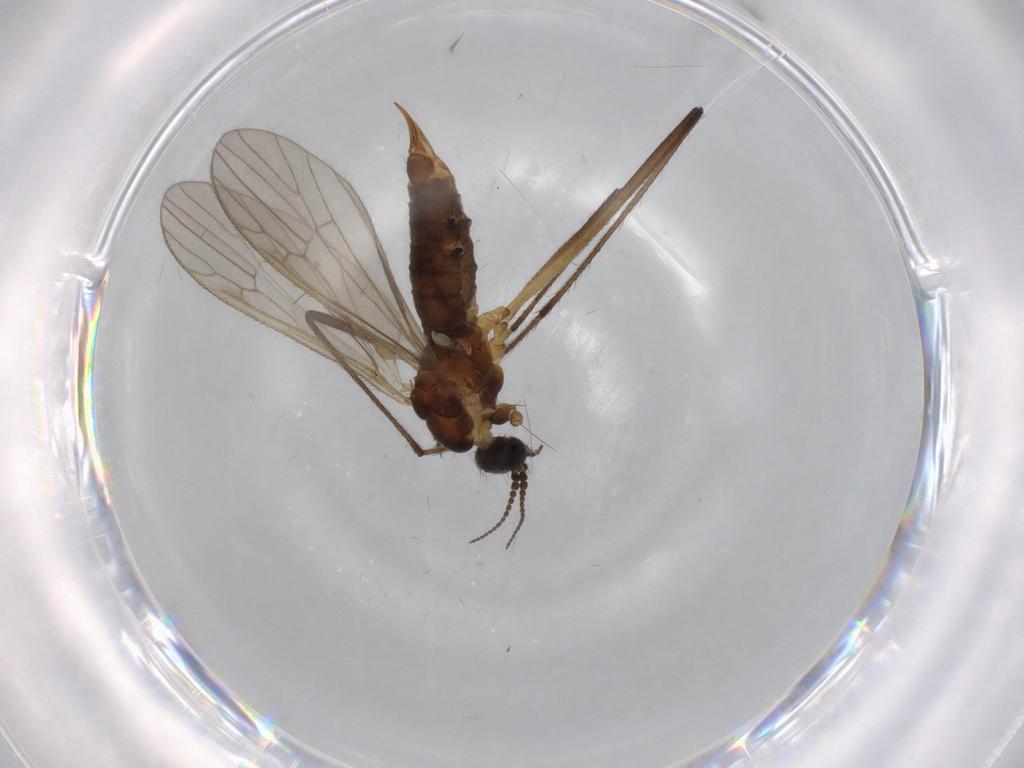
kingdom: Animalia
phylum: Arthropoda
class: Insecta
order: Diptera
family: Agromyzidae
